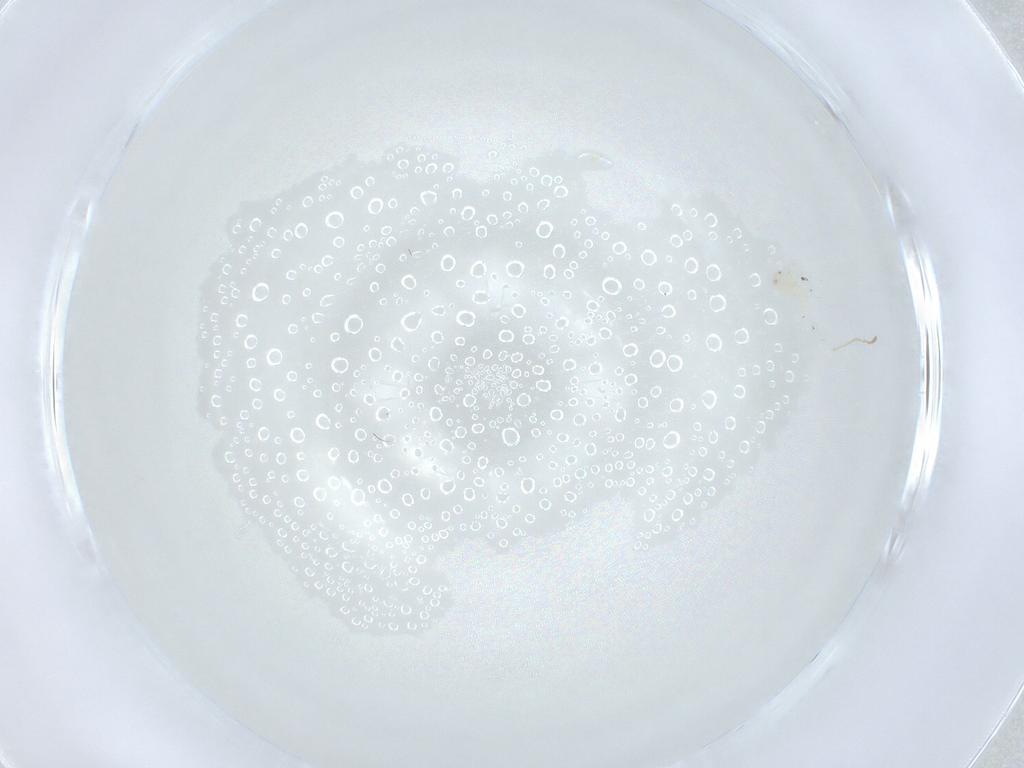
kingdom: Animalia
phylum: Arthropoda
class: Insecta
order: Diptera
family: Cecidomyiidae
